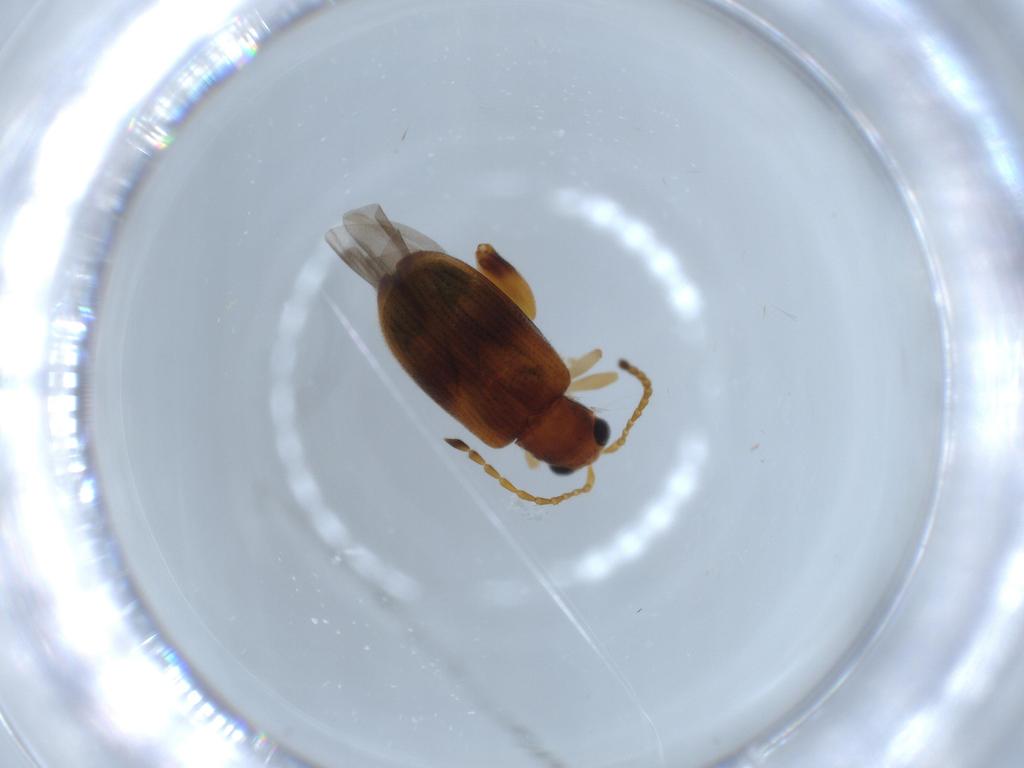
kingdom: Animalia
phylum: Arthropoda
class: Insecta
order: Coleoptera
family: Chrysomelidae
